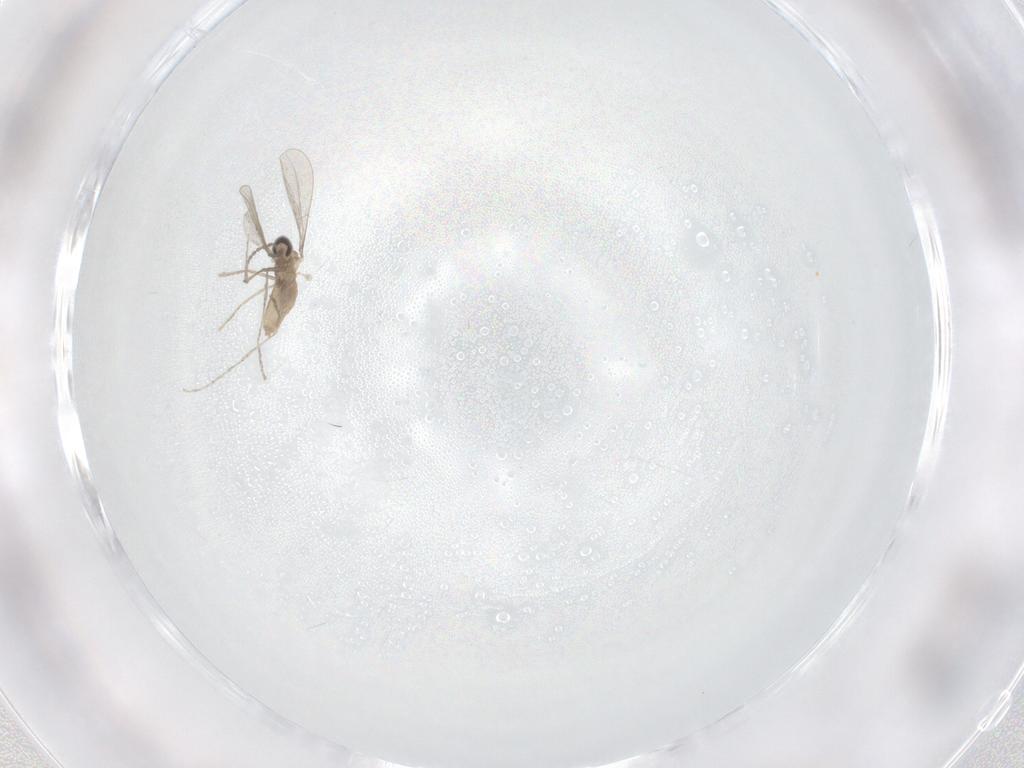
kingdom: Animalia
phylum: Arthropoda
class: Insecta
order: Diptera
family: Cecidomyiidae
